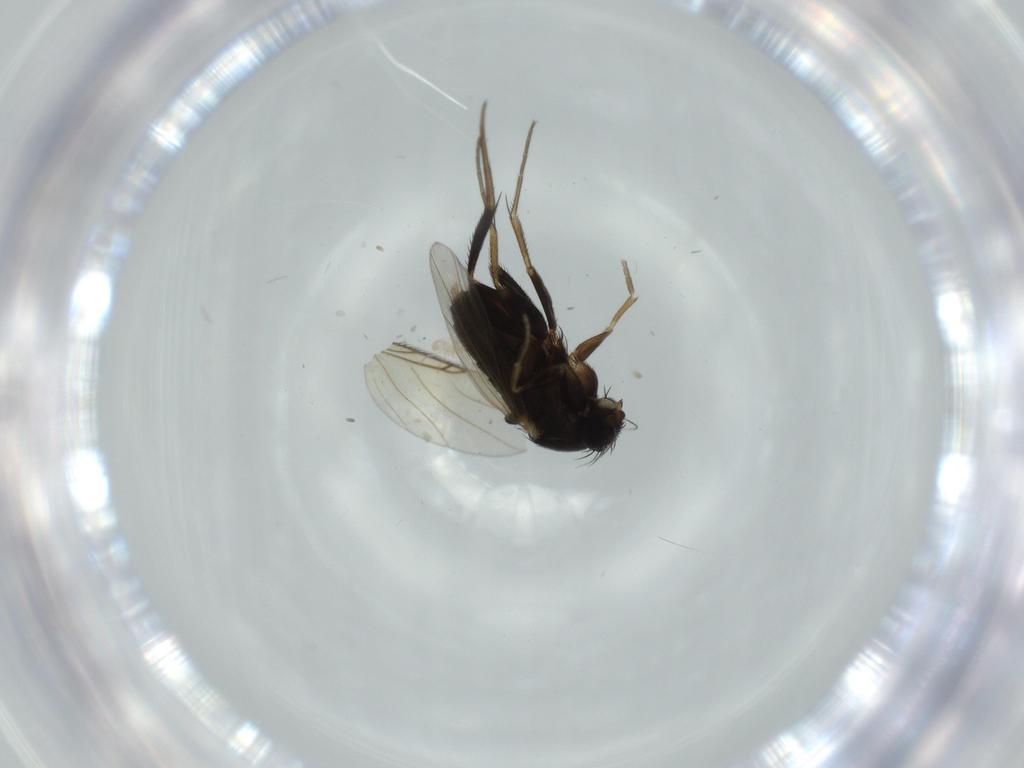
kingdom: Animalia
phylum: Arthropoda
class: Insecta
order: Diptera
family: Phoridae
